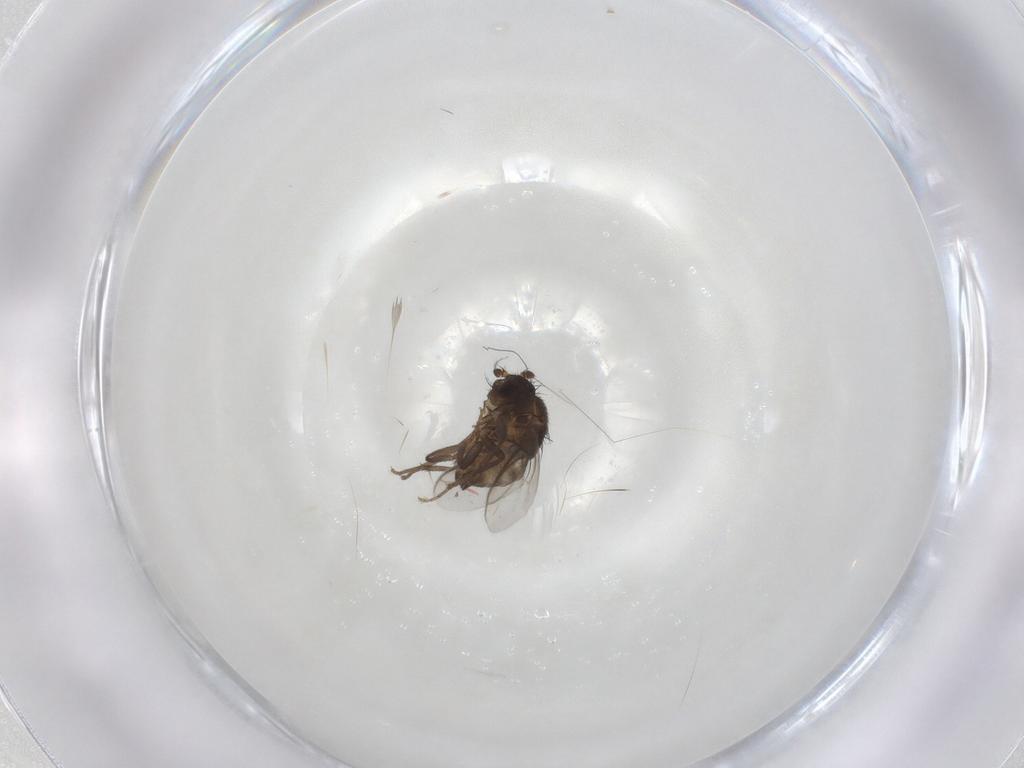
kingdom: Animalia
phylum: Arthropoda
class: Insecta
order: Diptera
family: Sphaeroceridae
